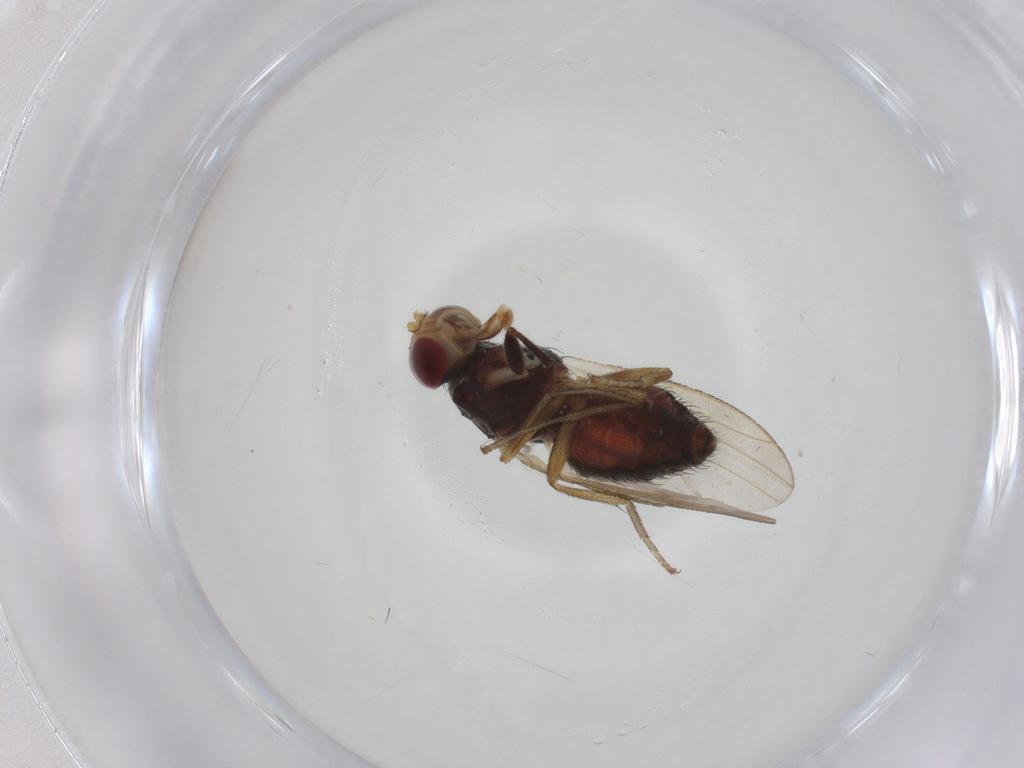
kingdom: Animalia
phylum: Arthropoda
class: Insecta
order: Diptera
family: Heleomyzidae
